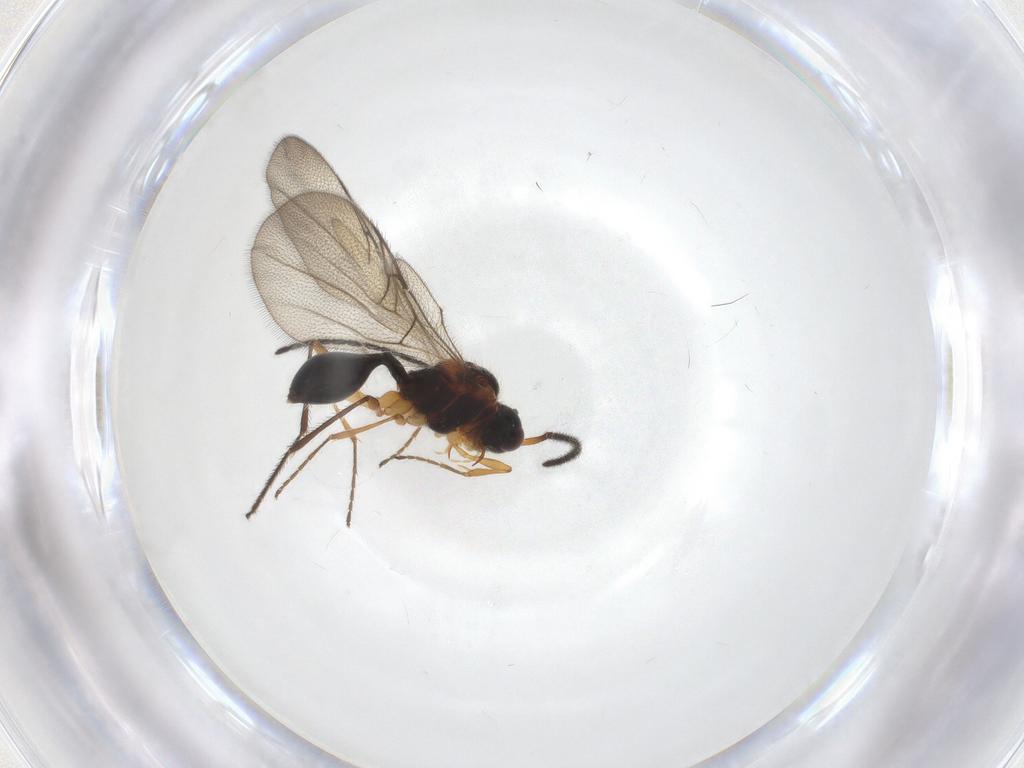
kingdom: Animalia
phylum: Arthropoda
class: Insecta
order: Hymenoptera
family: Diapriidae
